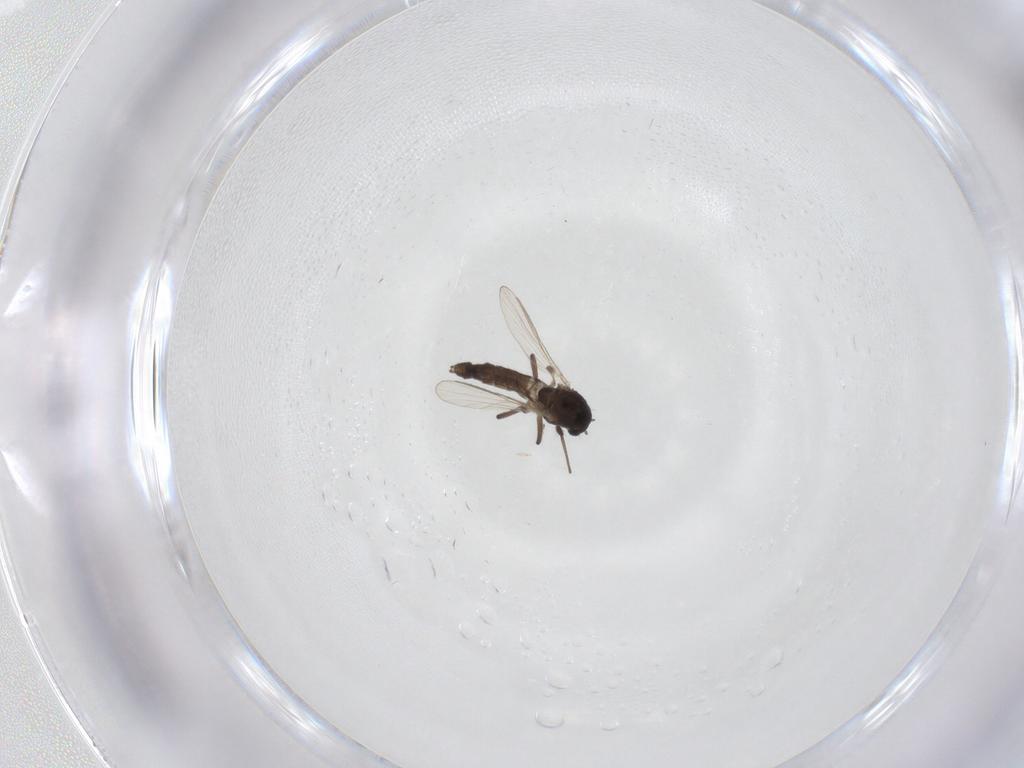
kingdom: Animalia
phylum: Arthropoda
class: Insecta
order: Diptera
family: Chironomidae
